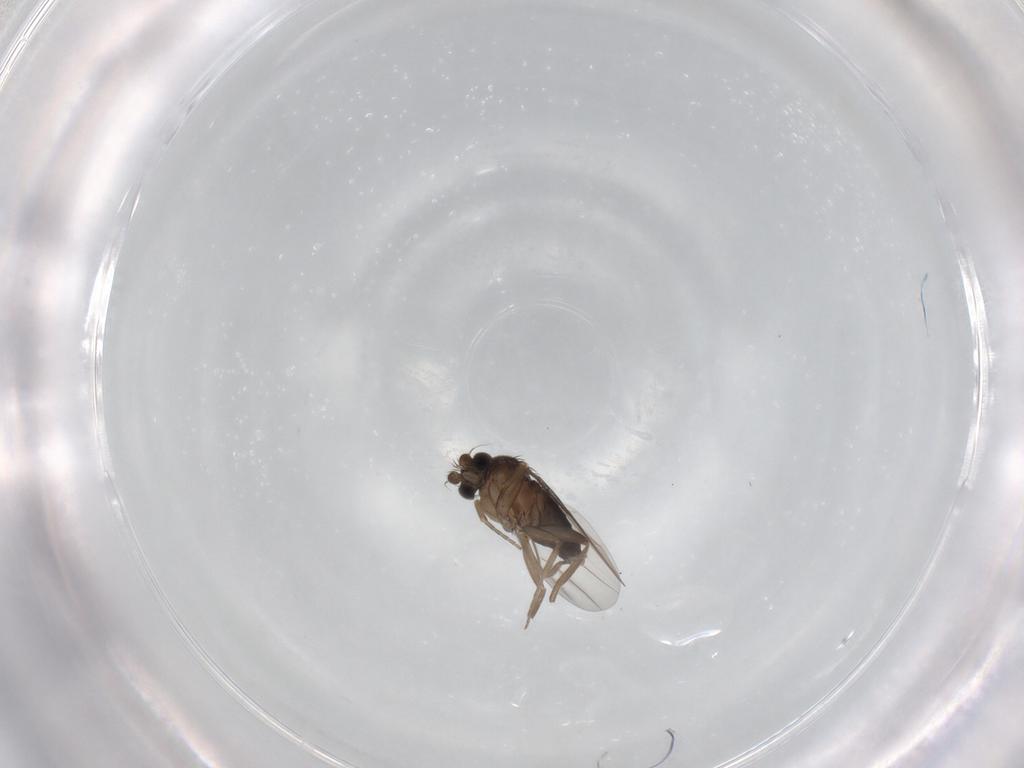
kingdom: Animalia
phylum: Arthropoda
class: Insecta
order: Diptera
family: Phoridae
